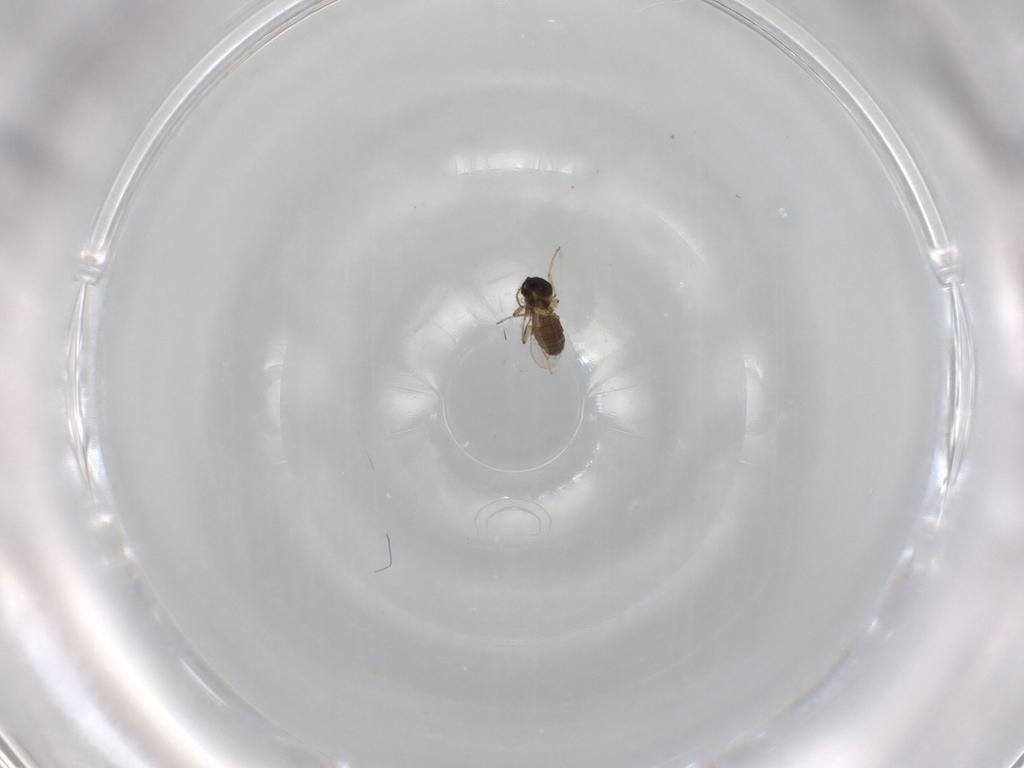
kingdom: Animalia
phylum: Arthropoda
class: Insecta
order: Diptera
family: Ceratopogonidae
